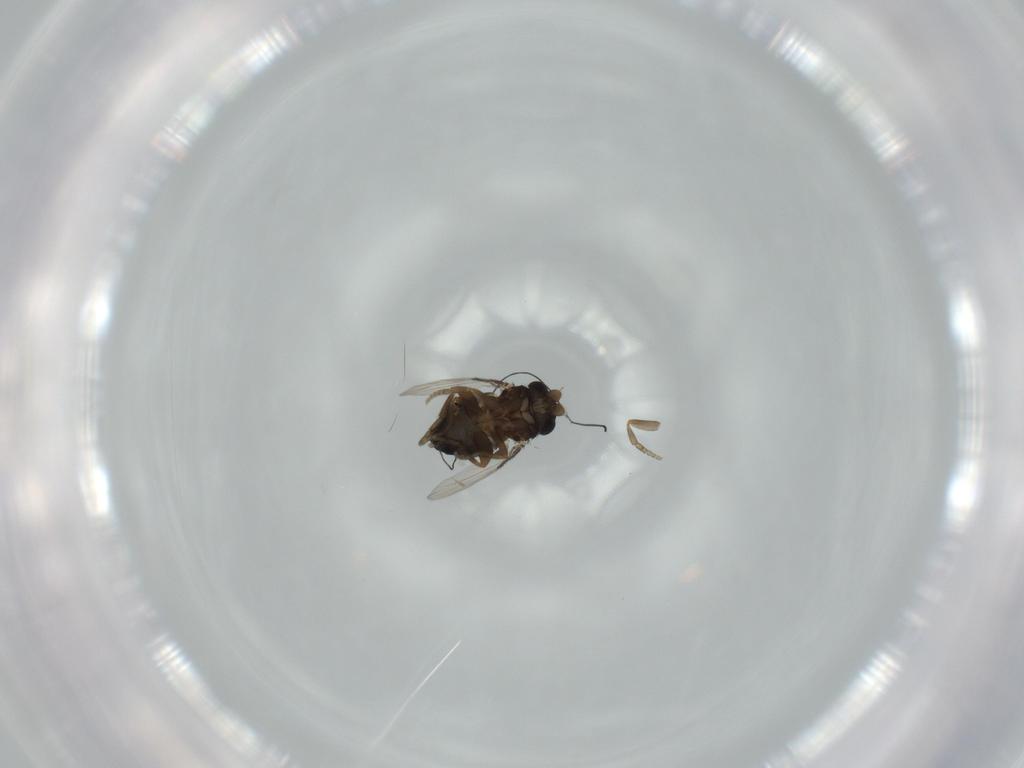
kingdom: Animalia
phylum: Arthropoda
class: Insecta
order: Diptera
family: Phoridae
